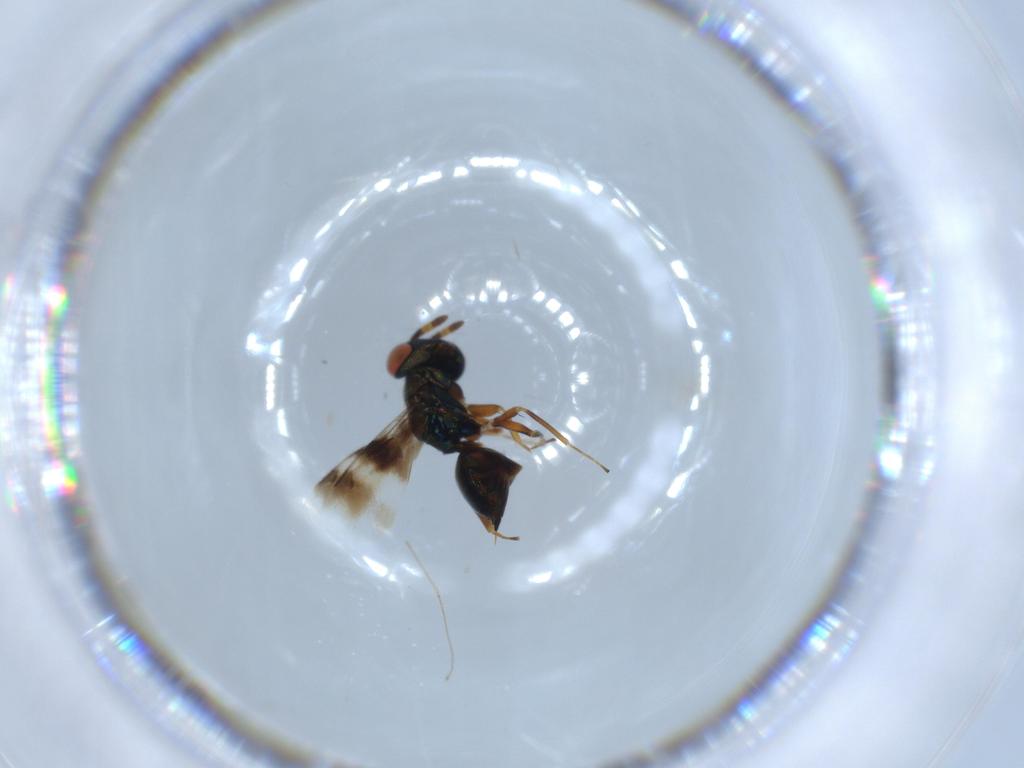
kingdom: Animalia
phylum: Arthropoda
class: Insecta
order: Hymenoptera
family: Pteromalidae
